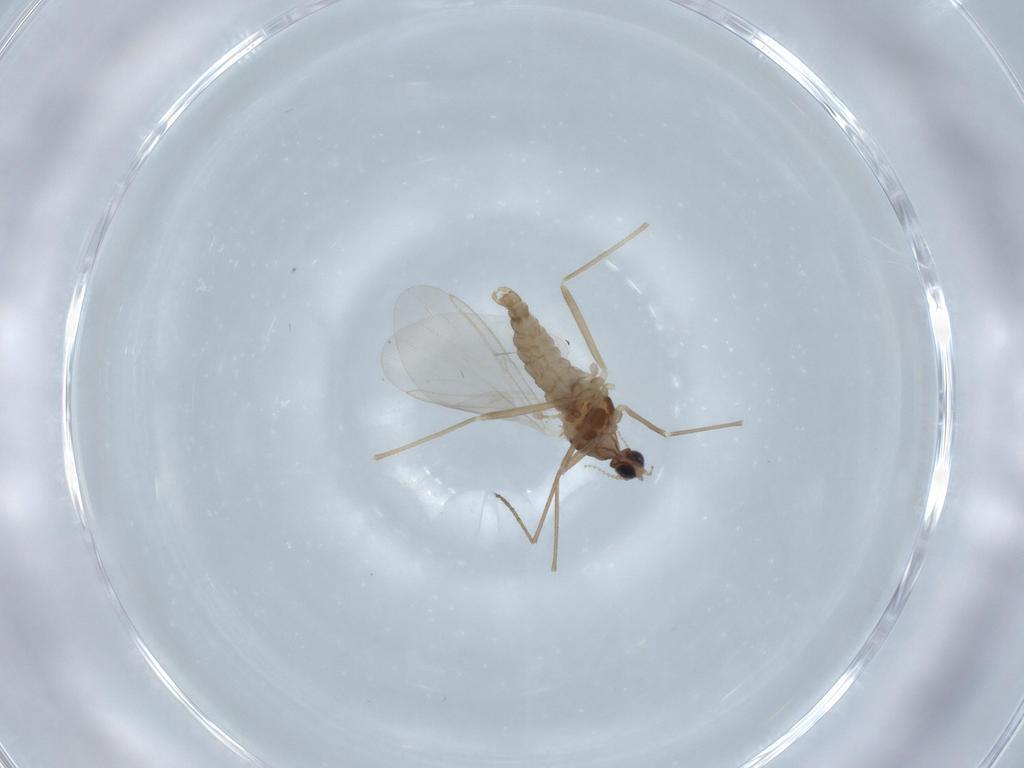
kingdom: Animalia
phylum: Arthropoda
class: Insecta
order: Diptera
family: Cecidomyiidae
